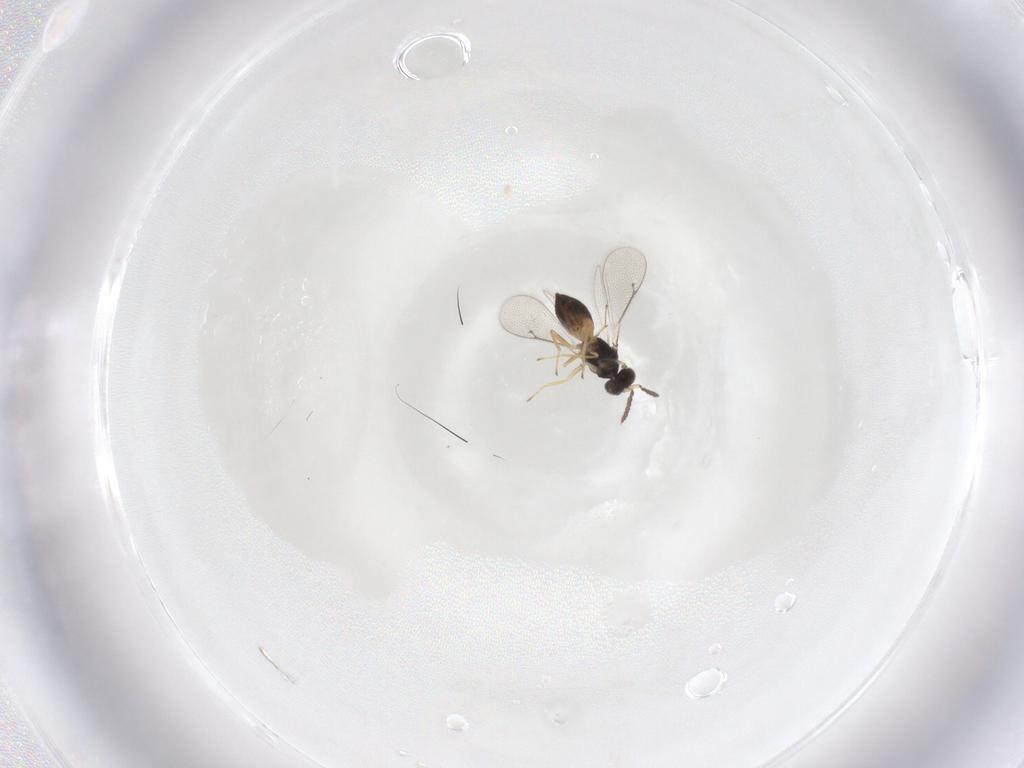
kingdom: Animalia
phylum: Arthropoda
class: Insecta
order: Hymenoptera
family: Eulophidae
